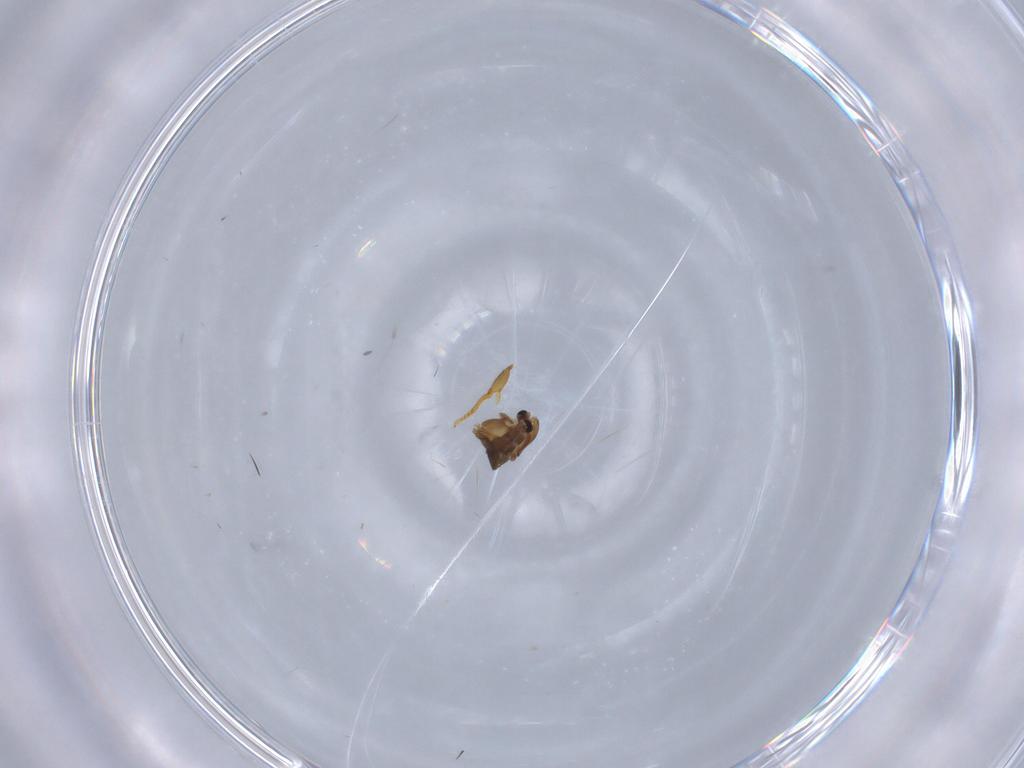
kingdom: Animalia
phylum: Arthropoda
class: Insecta
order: Diptera
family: Chironomidae
